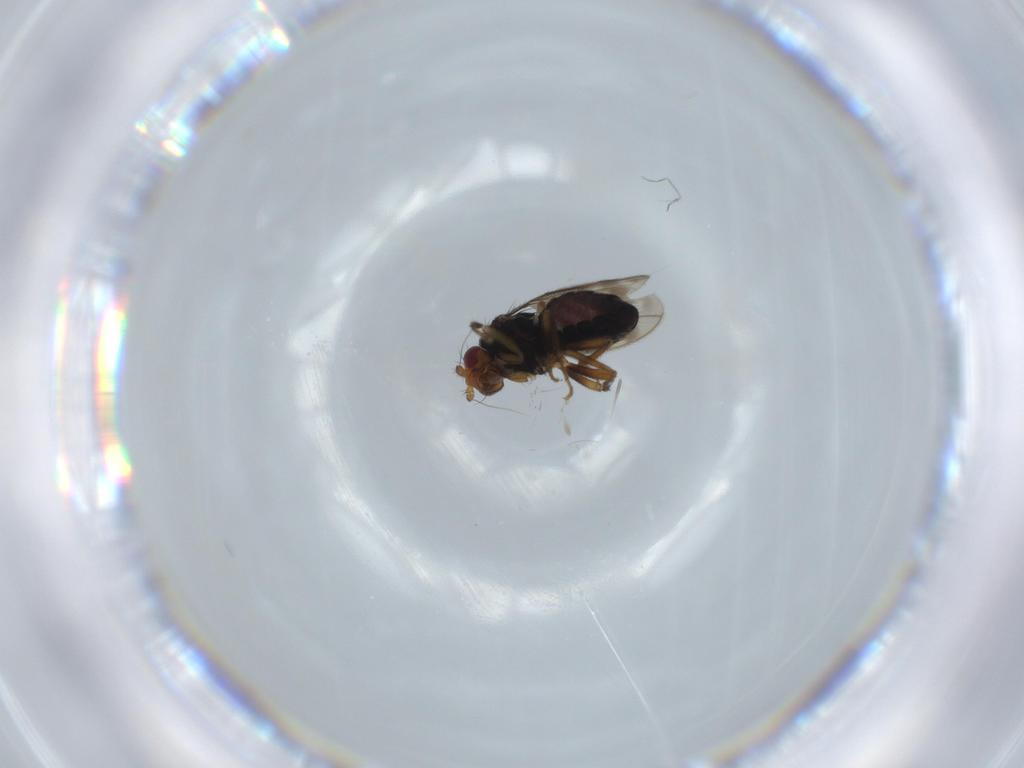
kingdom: Animalia
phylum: Arthropoda
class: Insecta
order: Diptera
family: Sphaeroceridae
